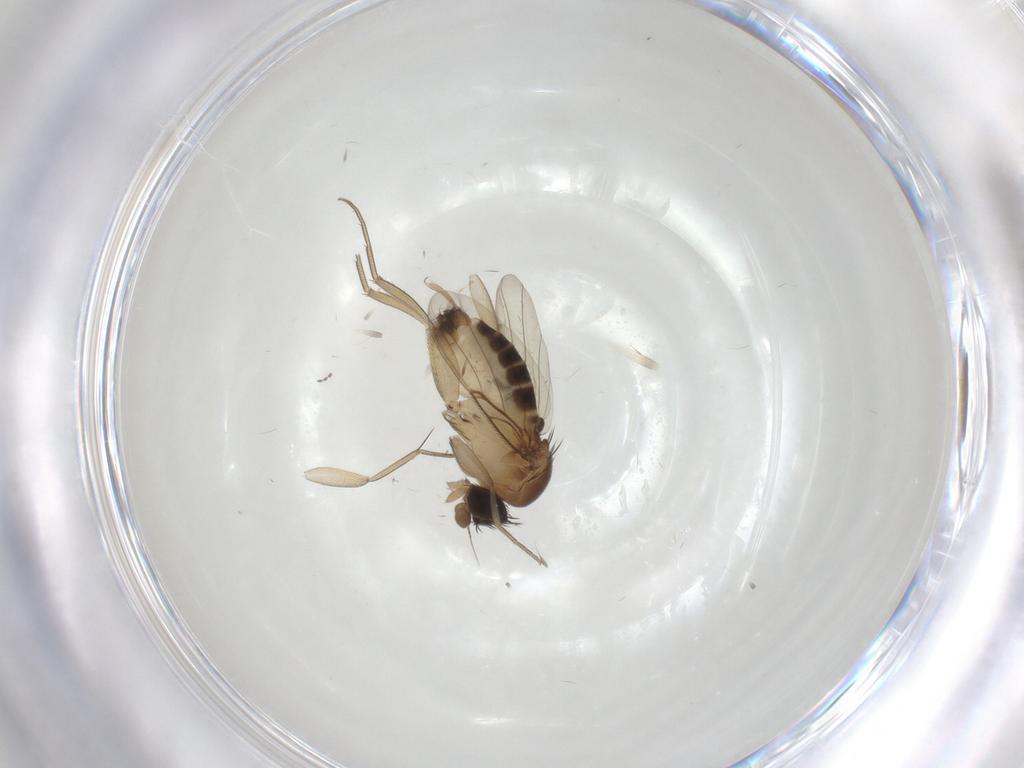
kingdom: Animalia
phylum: Arthropoda
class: Insecta
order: Diptera
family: Phoridae
